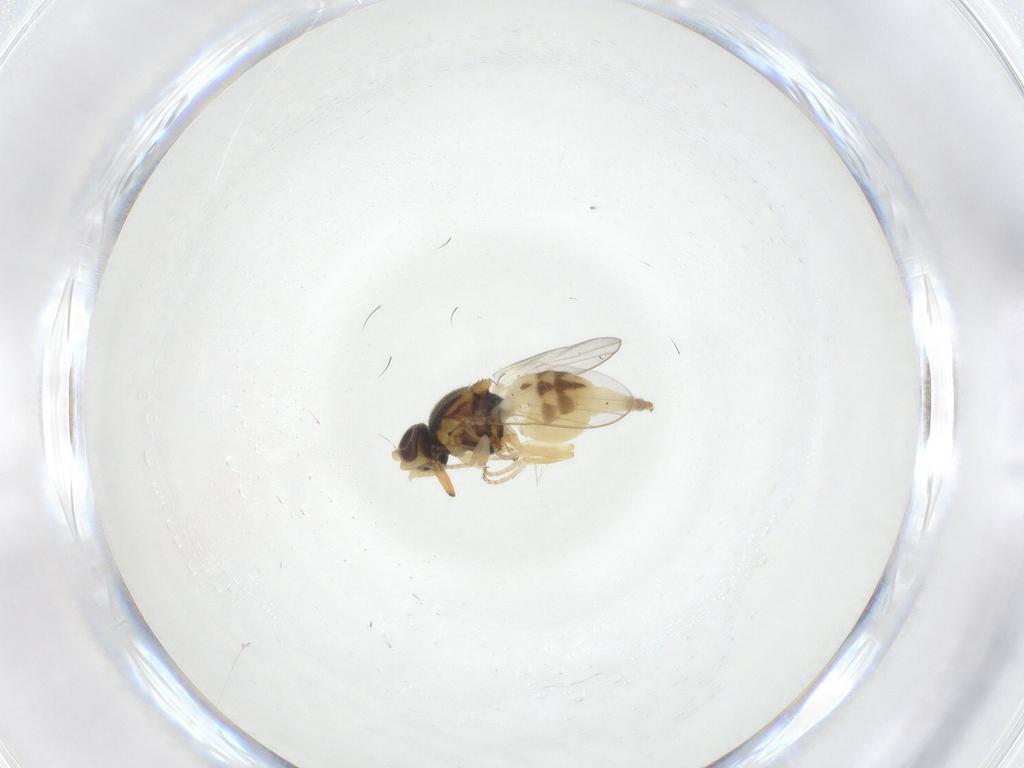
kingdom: Animalia
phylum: Arthropoda
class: Insecta
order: Diptera
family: Chloropidae
